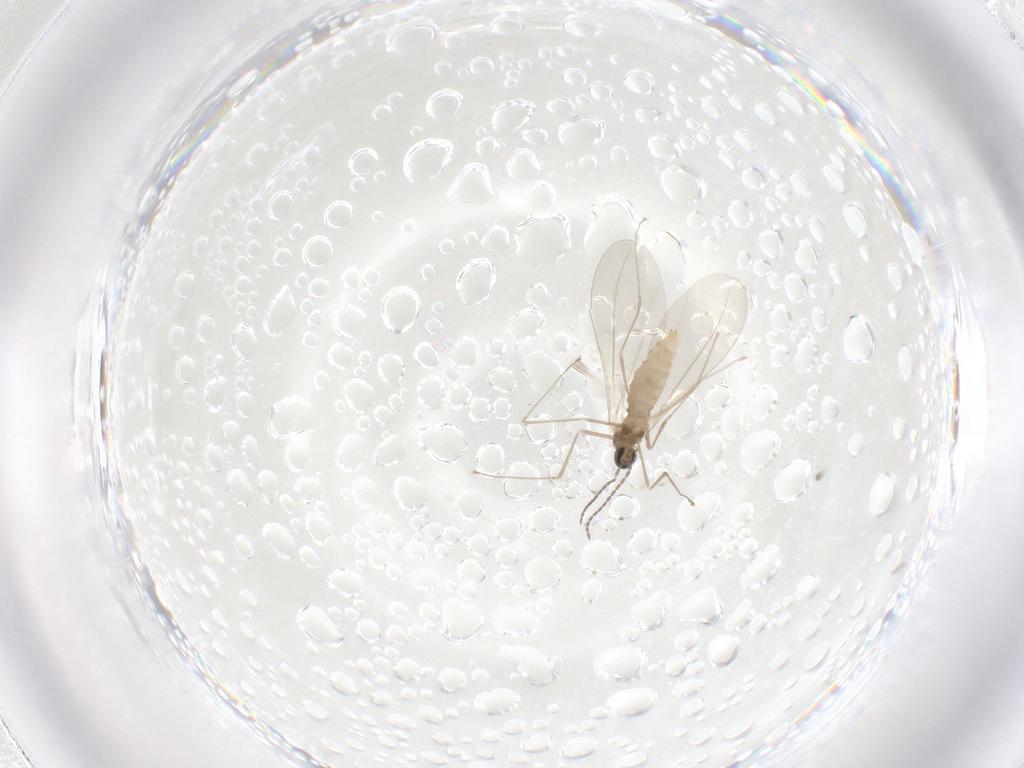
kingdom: Animalia
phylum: Arthropoda
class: Insecta
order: Diptera
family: Cecidomyiidae
